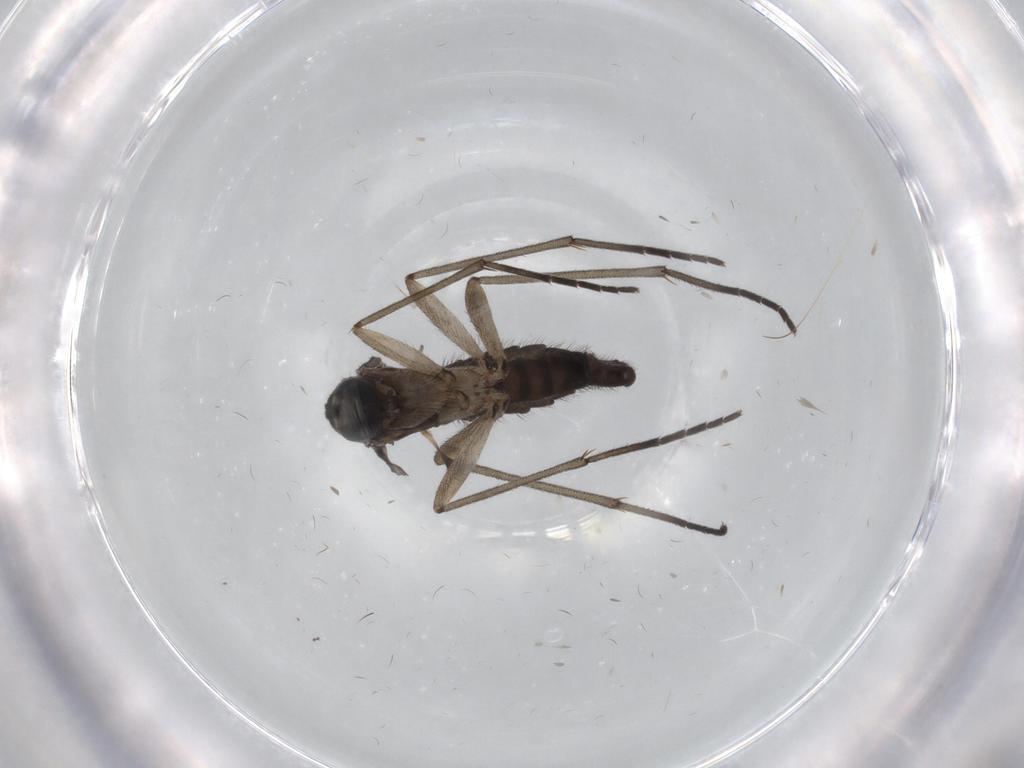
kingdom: Animalia
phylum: Arthropoda
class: Insecta
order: Diptera
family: Sciaridae
